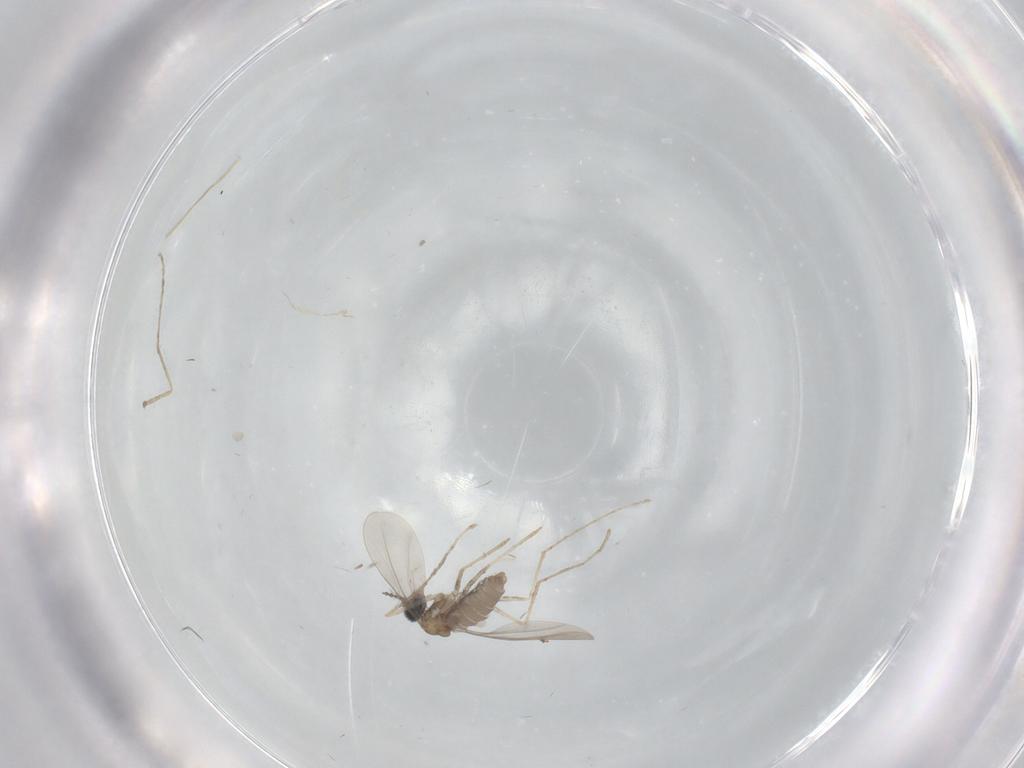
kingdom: Animalia
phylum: Arthropoda
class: Insecta
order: Diptera
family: Cecidomyiidae
